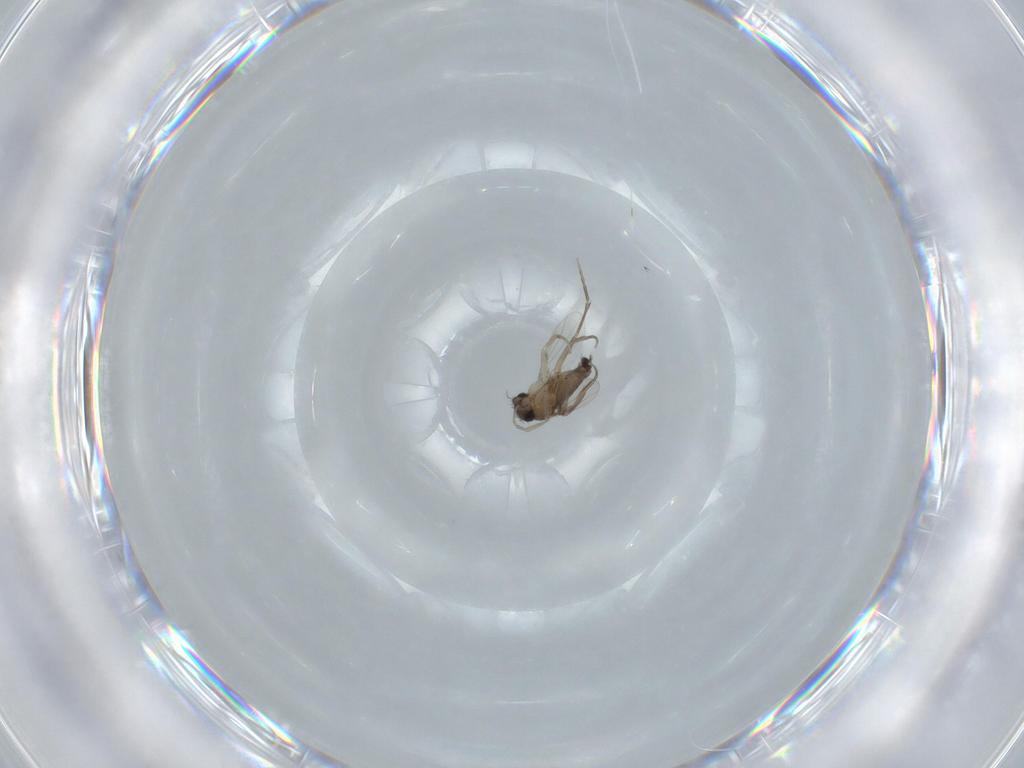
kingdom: Animalia
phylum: Arthropoda
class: Insecta
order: Diptera
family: Phoridae
